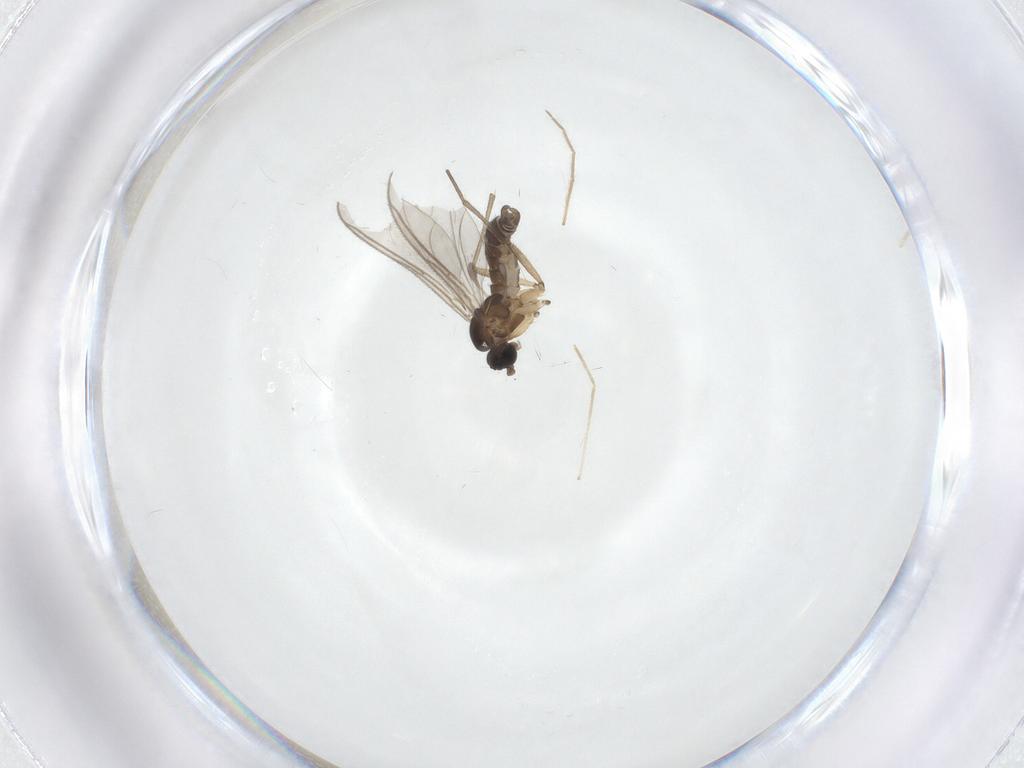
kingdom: Animalia
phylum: Arthropoda
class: Insecta
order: Diptera
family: Sciaridae
